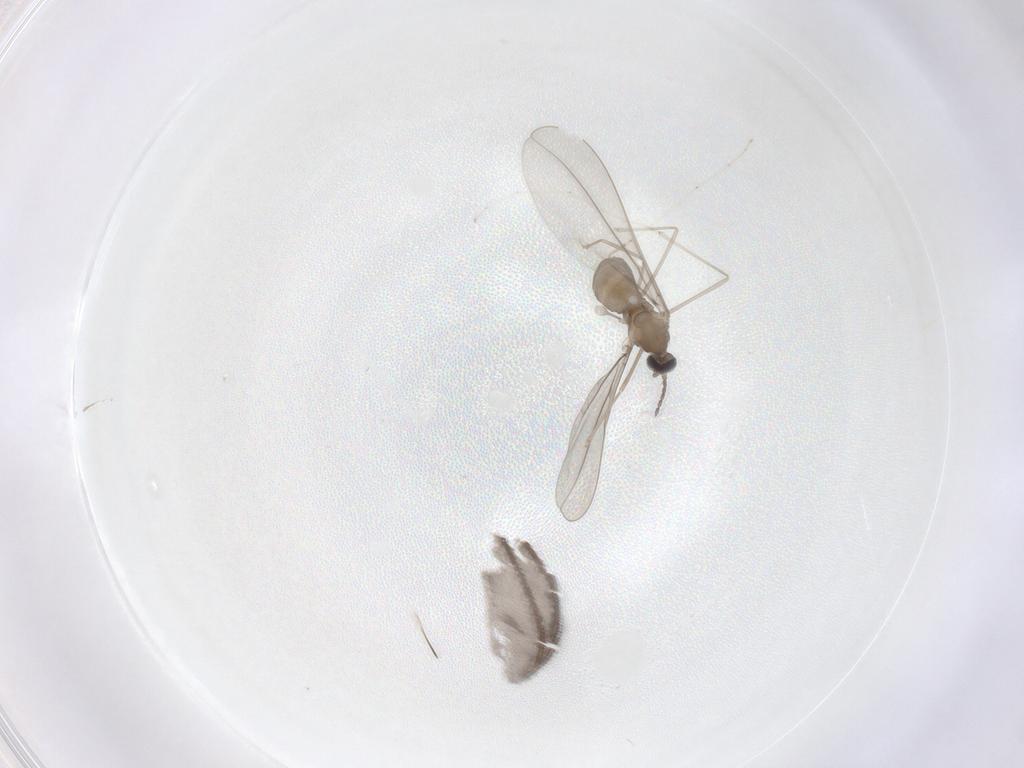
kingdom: Animalia
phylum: Arthropoda
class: Insecta
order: Diptera
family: Cecidomyiidae
